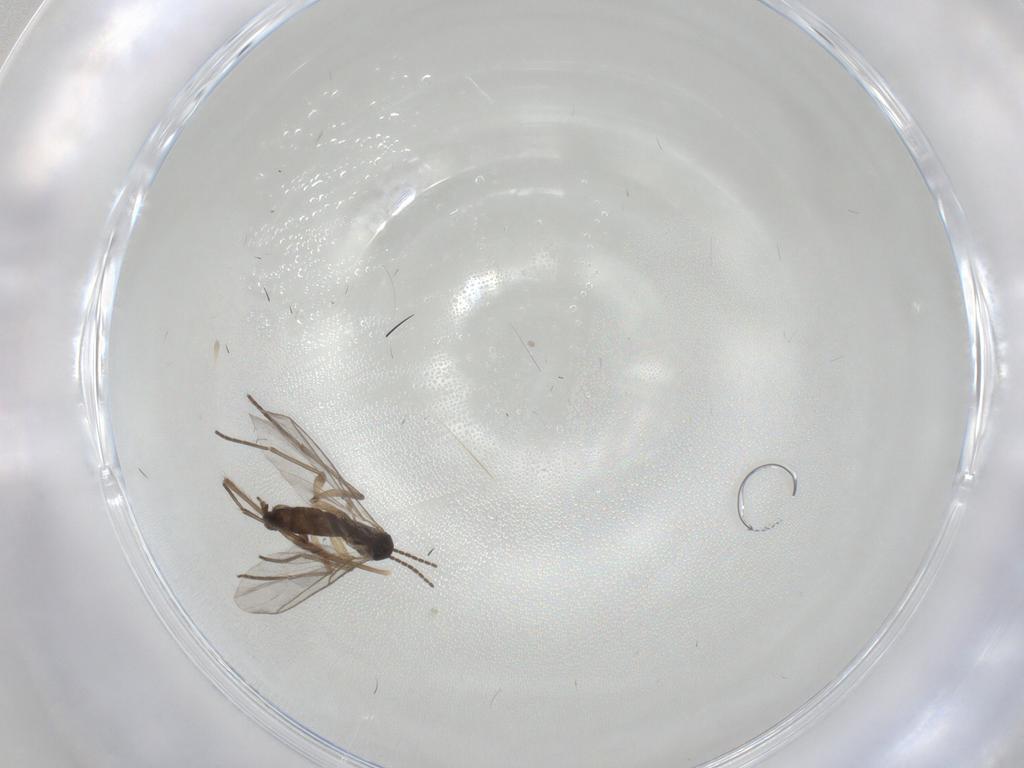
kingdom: Animalia
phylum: Arthropoda
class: Insecta
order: Diptera
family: Sciaridae
